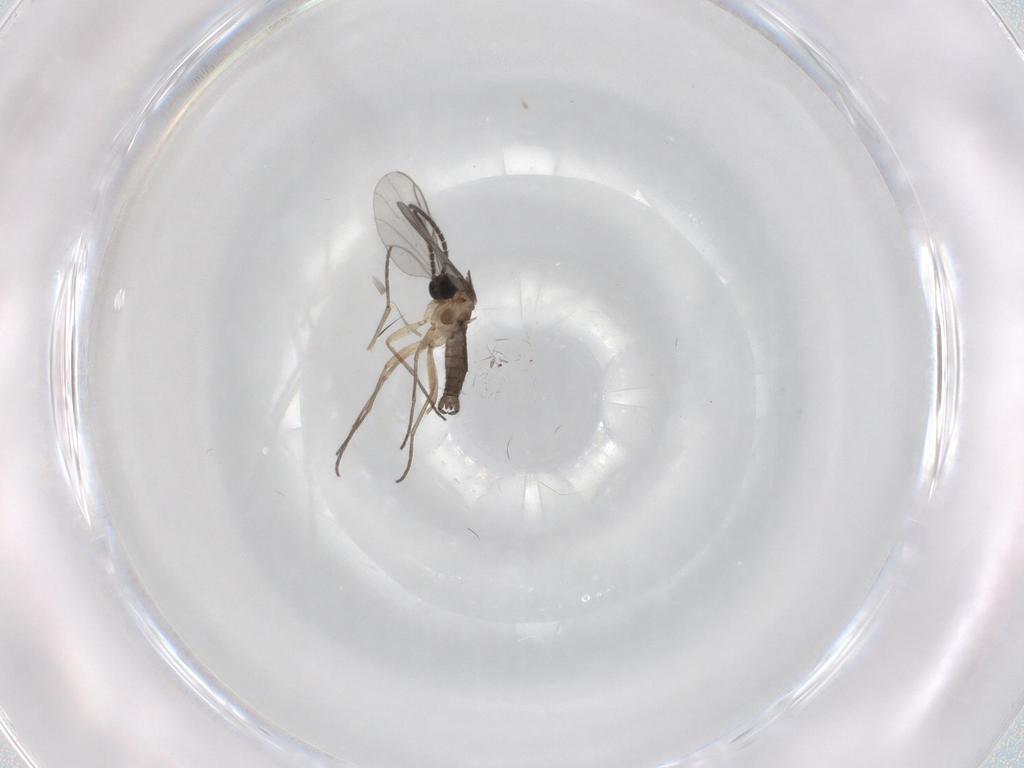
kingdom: Animalia
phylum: Arthropoda
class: Insecta
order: Diptera
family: Sciaridae
